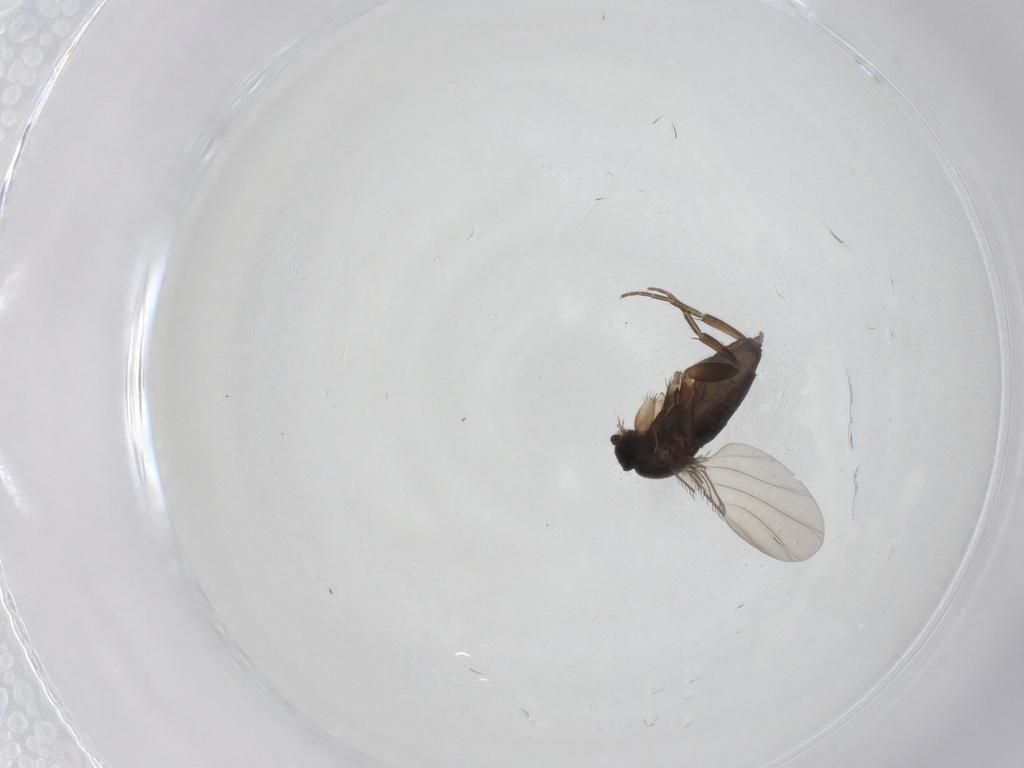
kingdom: Animalia
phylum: Arthropoda
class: Insecta
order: Diptera
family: Phoridae
